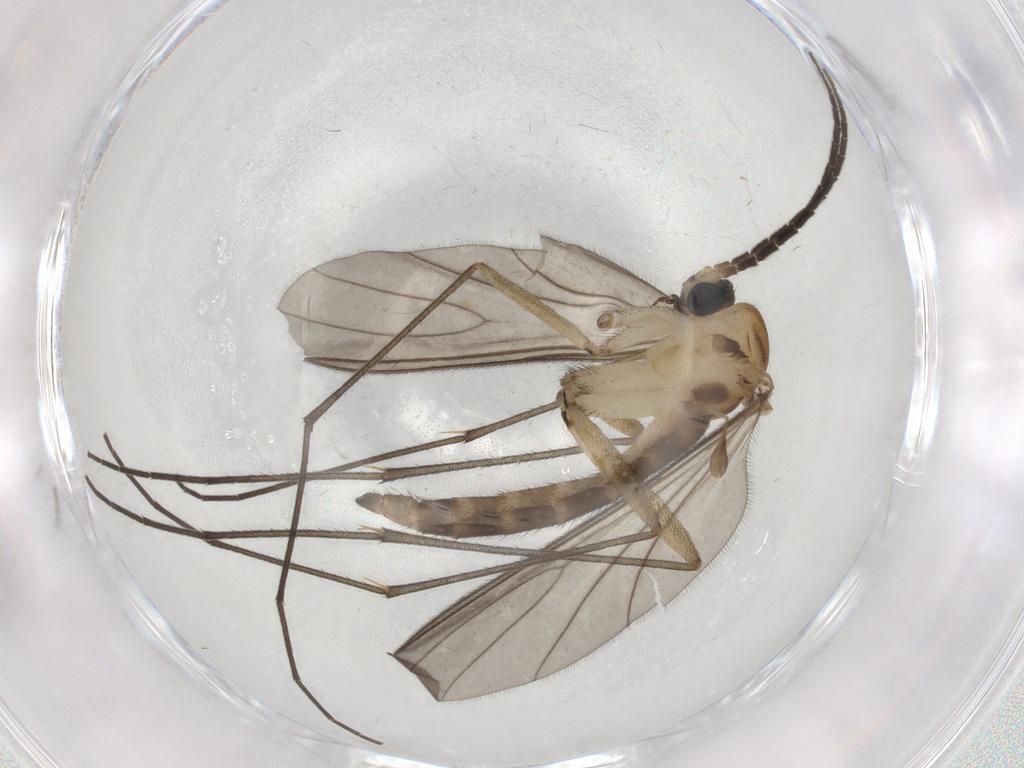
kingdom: Animalia
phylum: Arthropoda
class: Insecta
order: Diptera
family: Sciaridae
